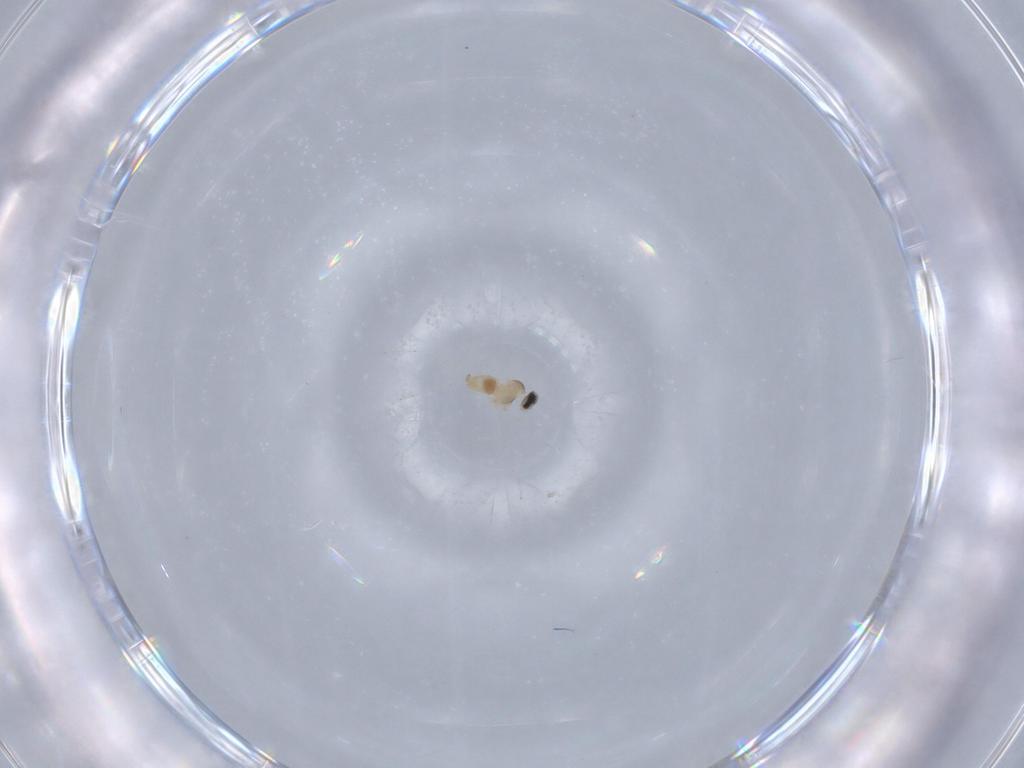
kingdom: Animalia
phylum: Arthropoda
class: Insecta
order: Diptera
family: Cecidomyiidae
